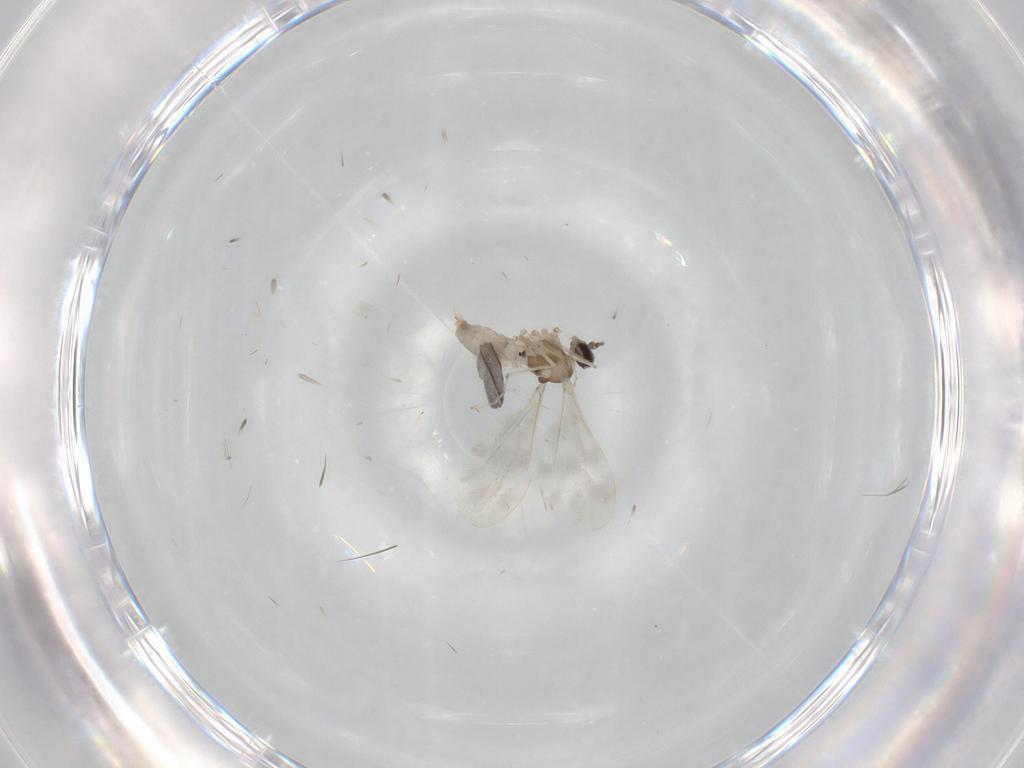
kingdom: Animalia
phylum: Arthropoda
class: Insecta
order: Diptera
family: Cecidomyiidae
